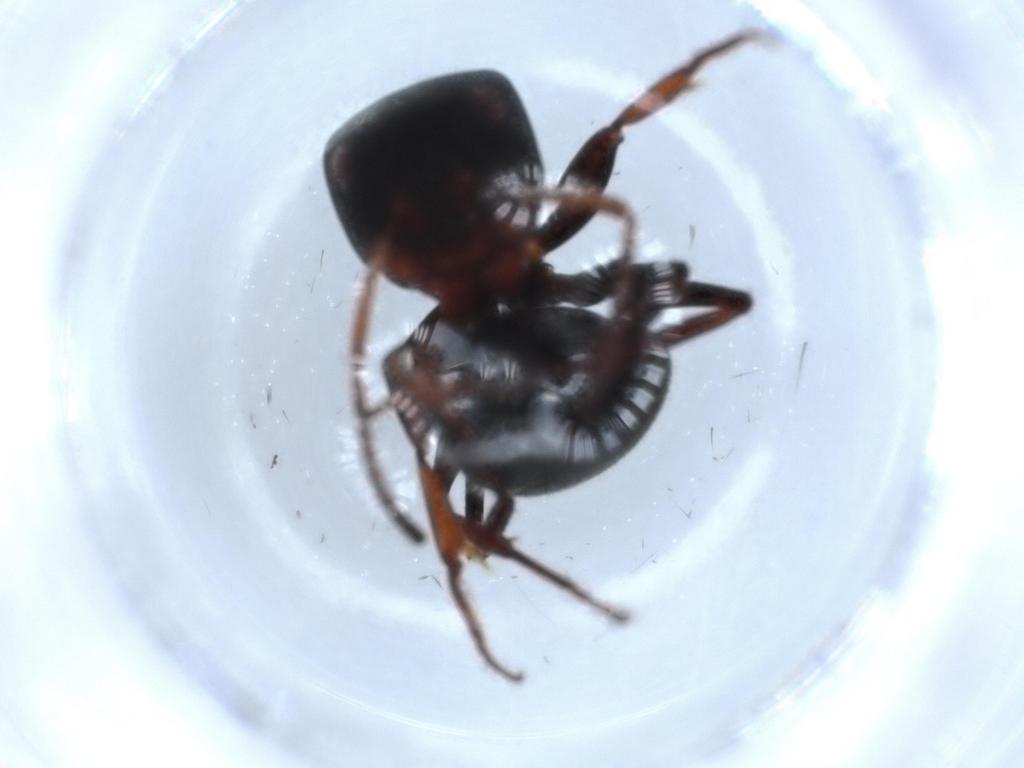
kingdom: Animalia
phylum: Arthropoda
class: Insecta
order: Hymenoptera
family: Formicidae
